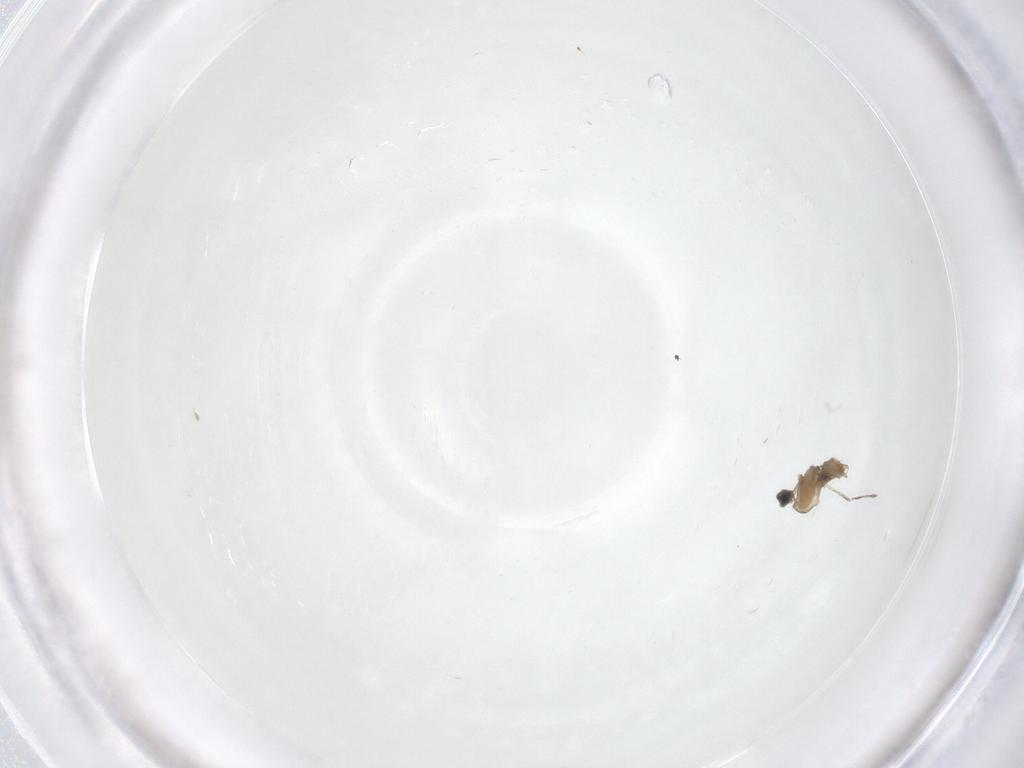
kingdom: Animalia
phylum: Arthropoda
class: Insecta
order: Diptera
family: Cecidomyiidae
